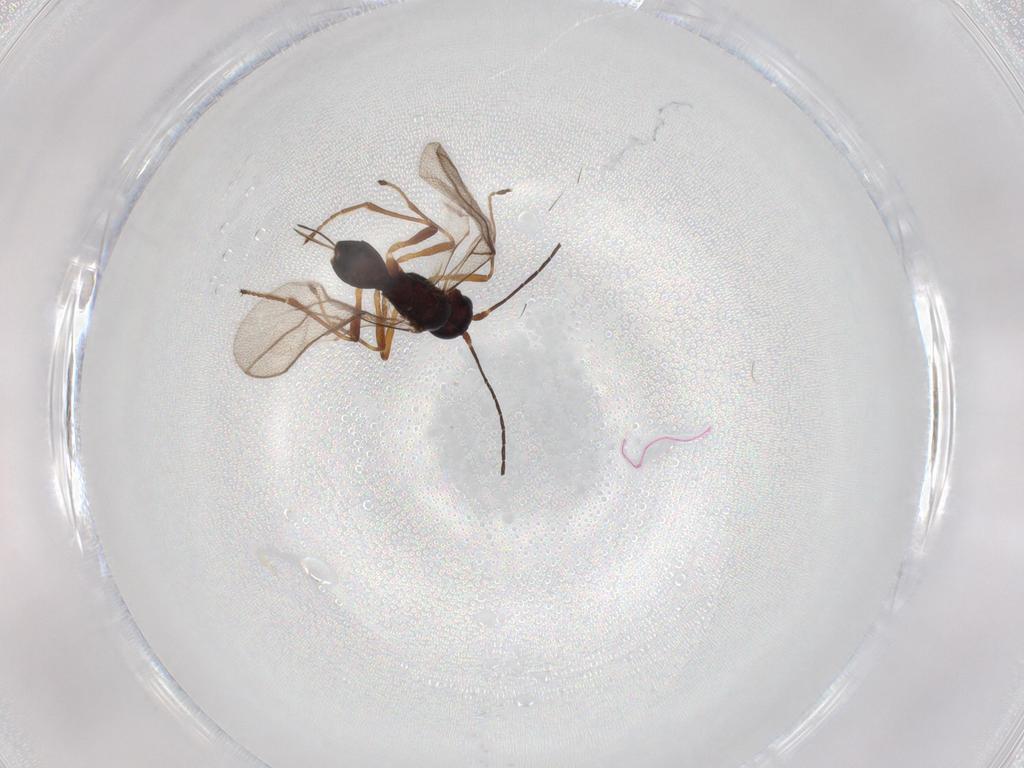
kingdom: Animalia
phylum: Arthropoda
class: Insecta
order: Hymenoptera
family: Braconidae
